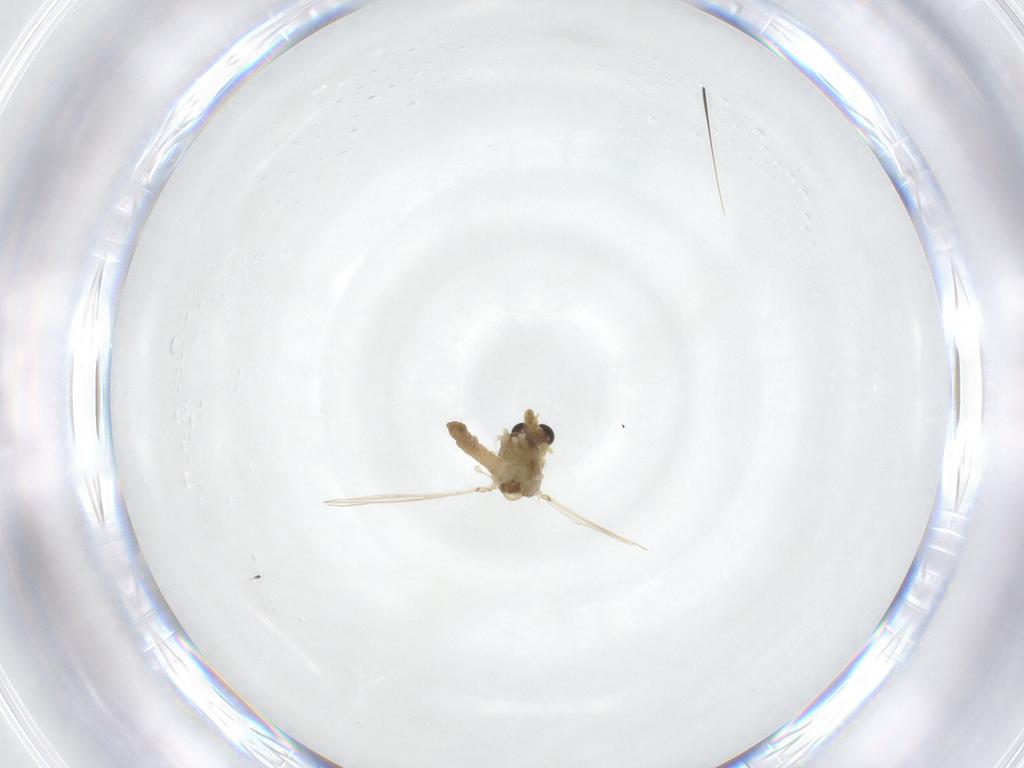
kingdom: Animalia
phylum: Arthropoda
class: Insecta
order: Diptera
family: Chironomidae
